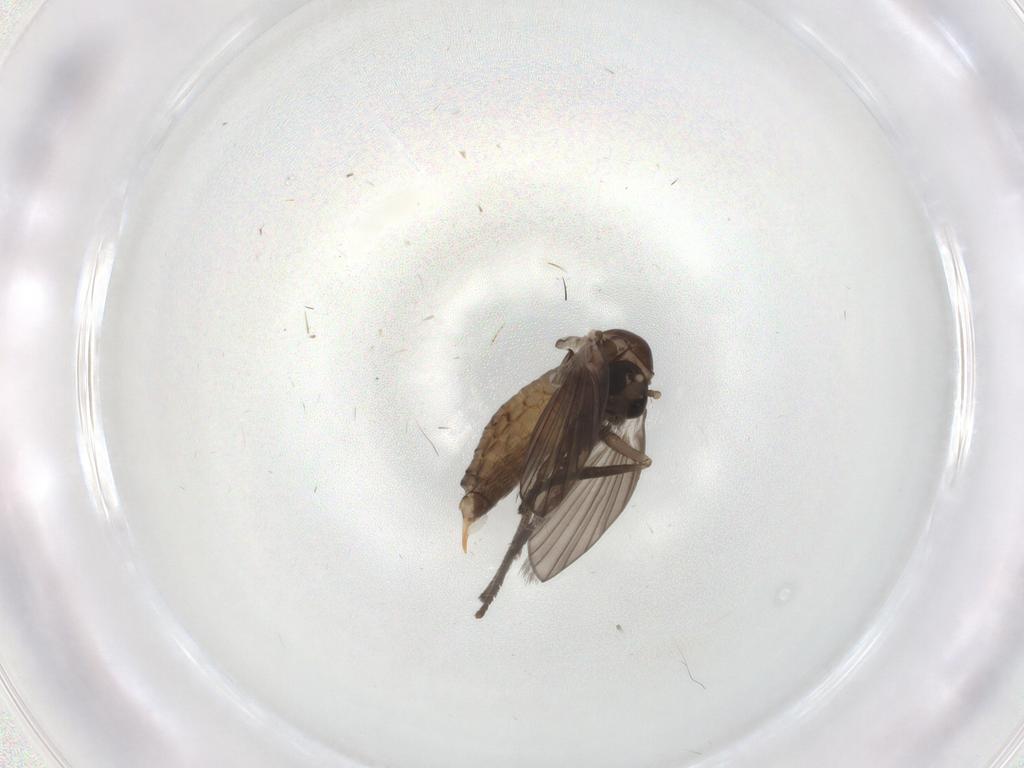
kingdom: Animalia
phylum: Arthropoda
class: Insecta
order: Diptera
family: Psychodidae
